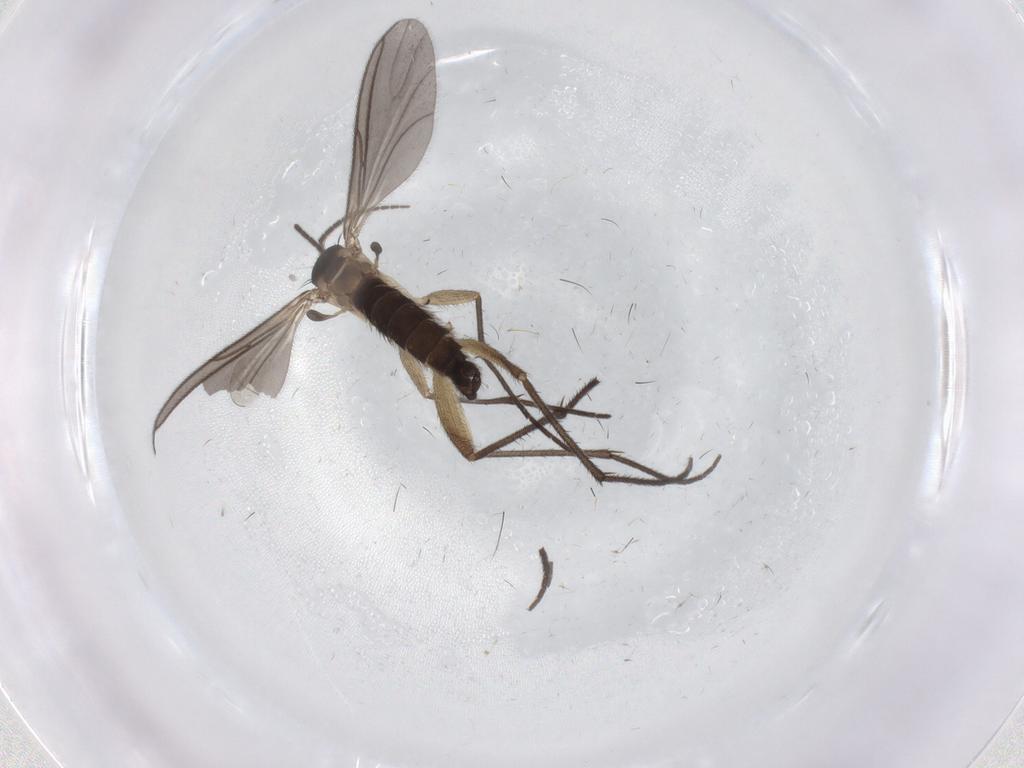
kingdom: Animalia
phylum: Arthropoda
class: Insecta
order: Diptera
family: Sciaridae
